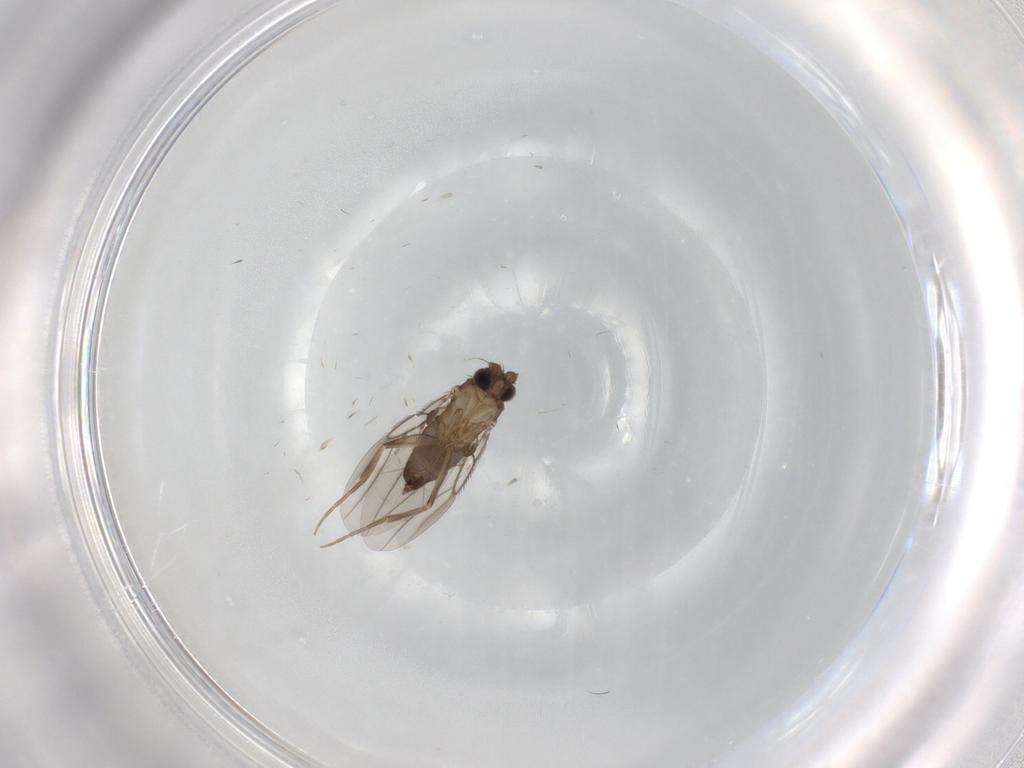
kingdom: Animalia
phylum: Arthropoda
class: Insecta
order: Diptera
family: Phoridae
